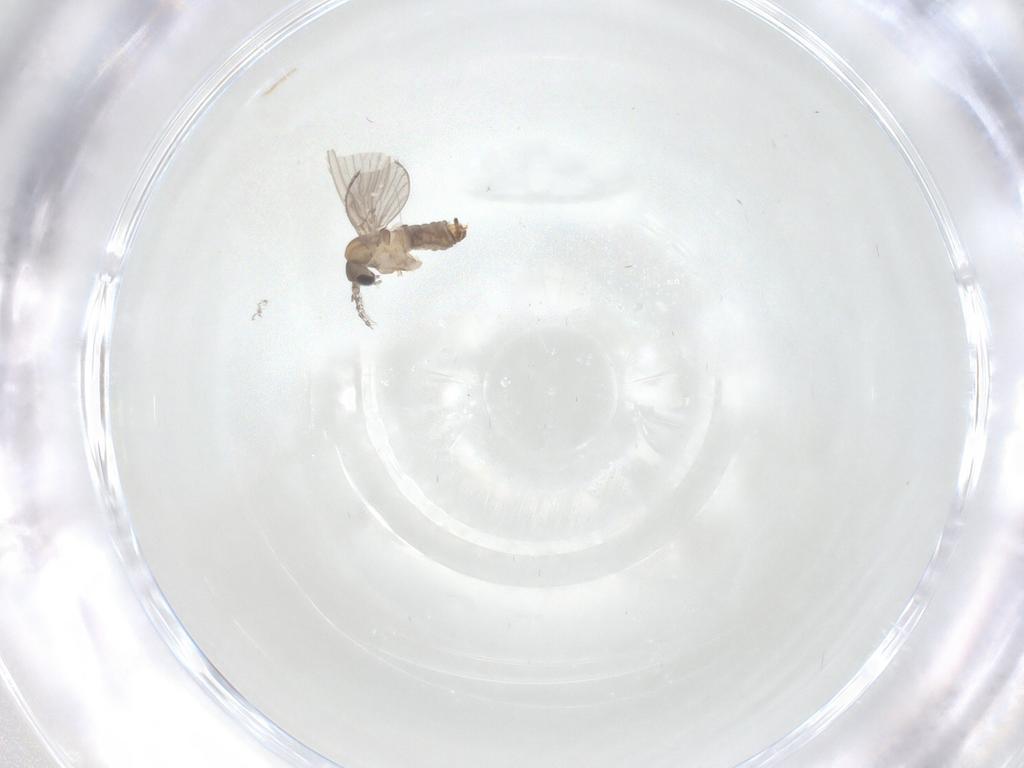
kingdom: Animalia
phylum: Arthropoda
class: Insecta
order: Diptera
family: Psychodidae
